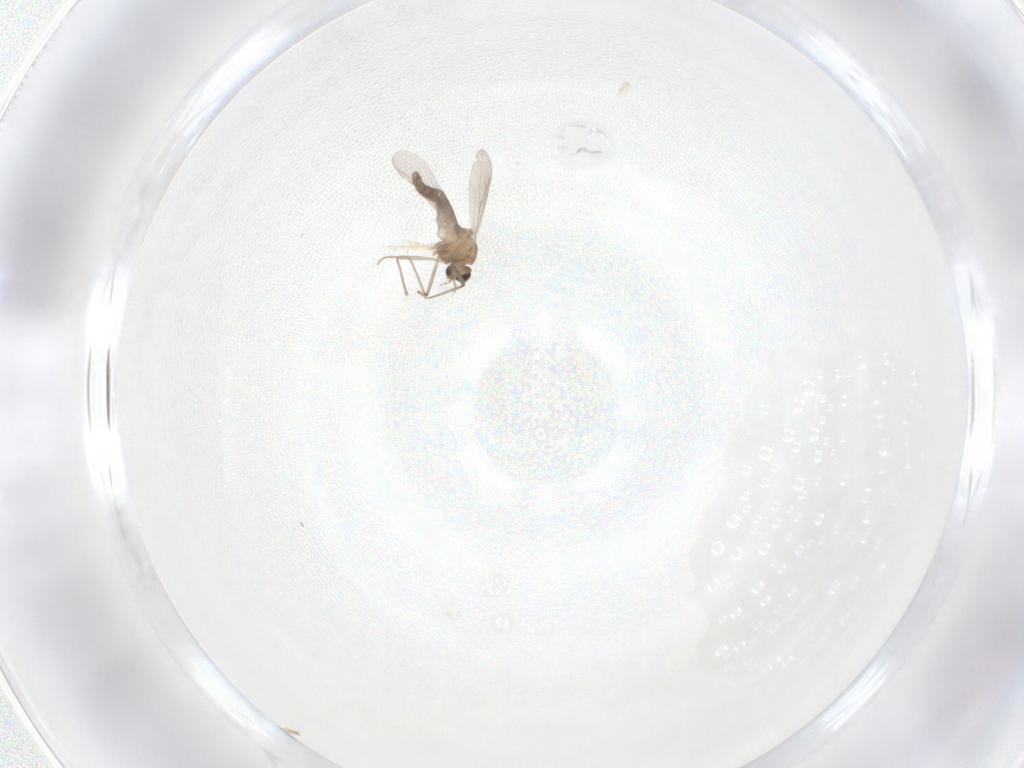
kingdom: Animalia
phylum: Arthropoda
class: Insecta
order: Diptera
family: Chironomidae
